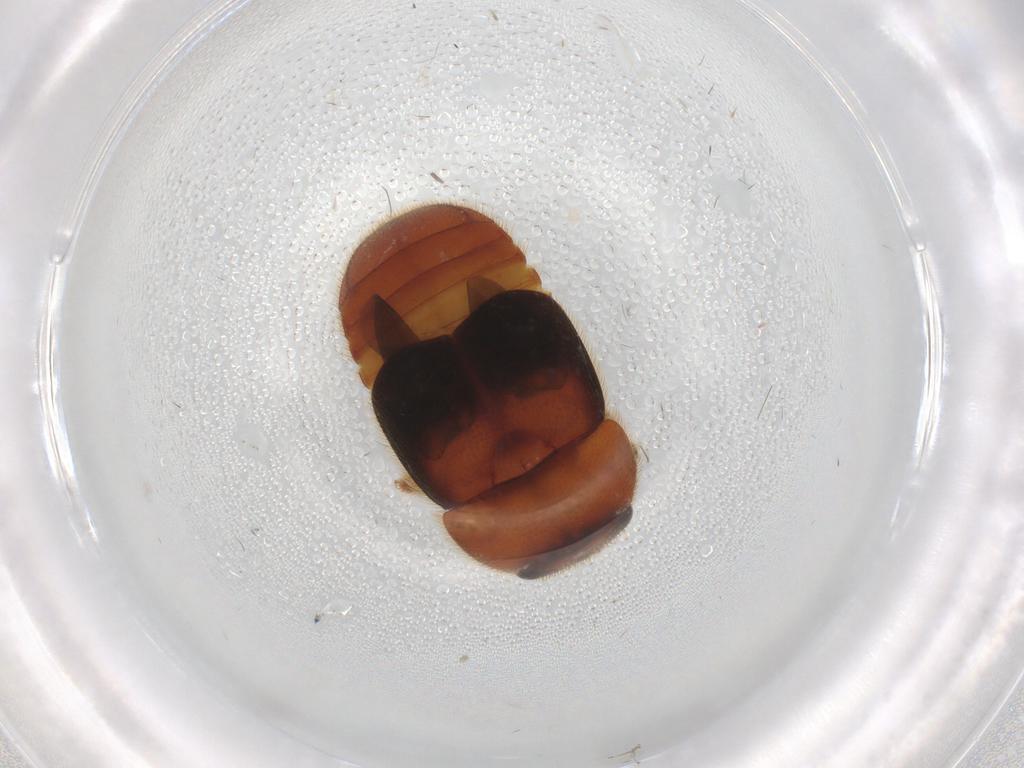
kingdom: Animalia
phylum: Arthropoda
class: Insecta
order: Coleoptera
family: Nitidulidae
